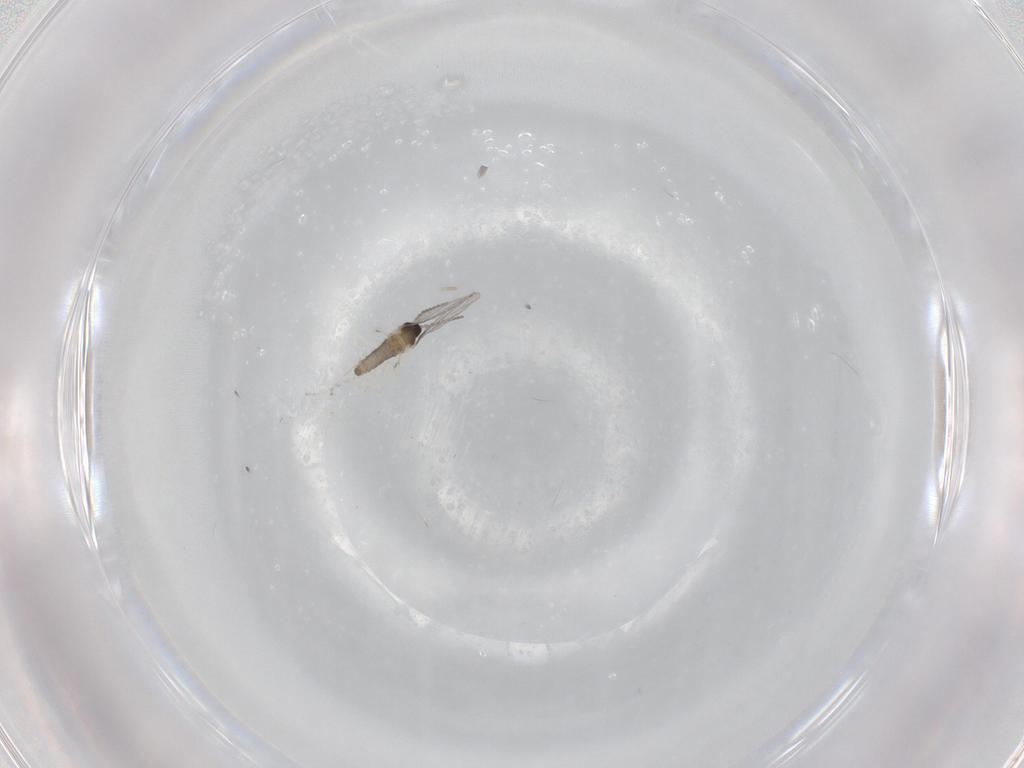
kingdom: Animalia
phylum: Arthropoda
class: Insecta
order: Diptera
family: Cecidomyiidae
